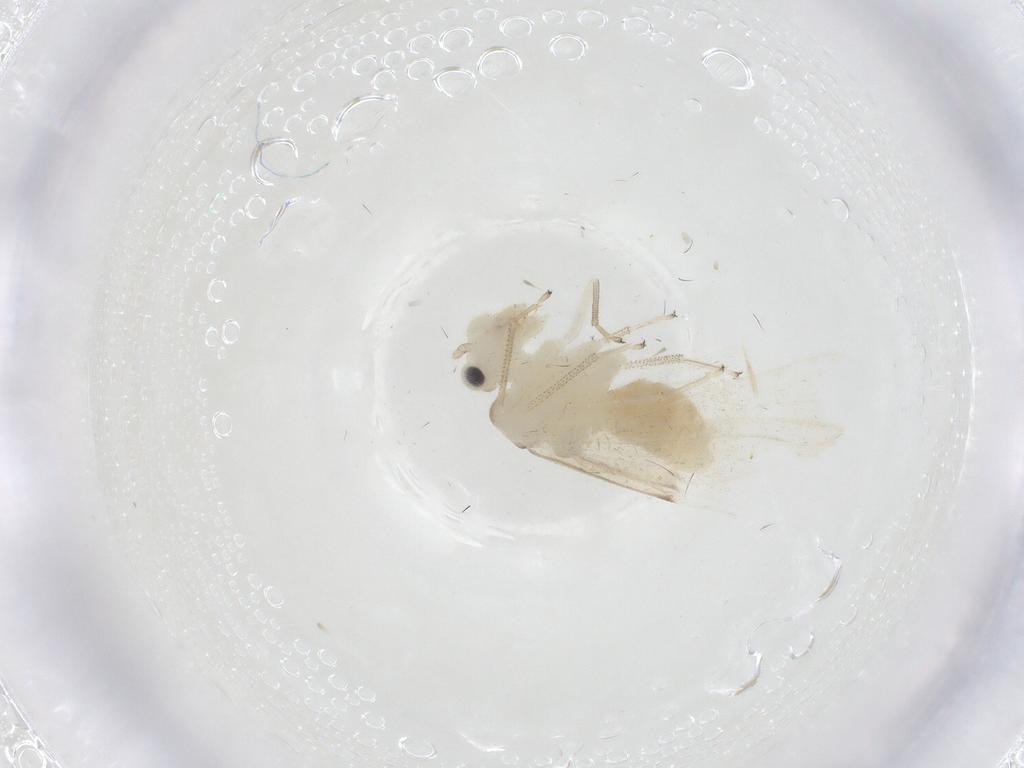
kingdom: Animalia
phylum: Arthropoda
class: Insecta
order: Psocodea
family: Caeciliusidae
